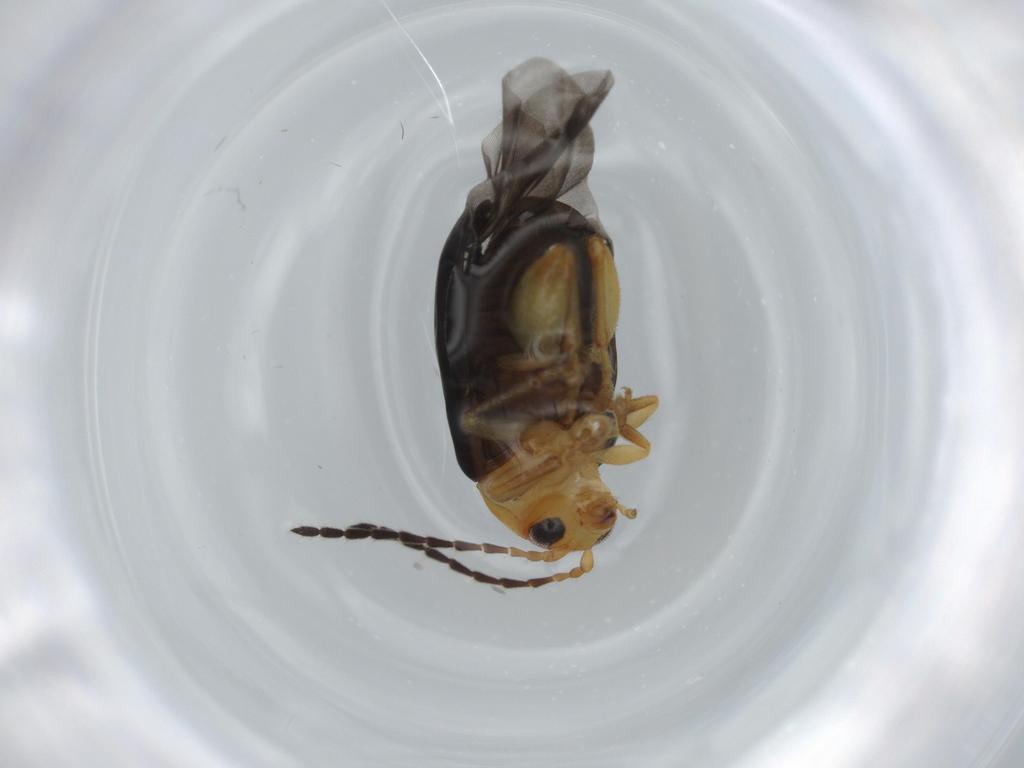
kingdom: Animalia
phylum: Arthropoda
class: Insecta
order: Coleoptera
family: Chrysomelidae
